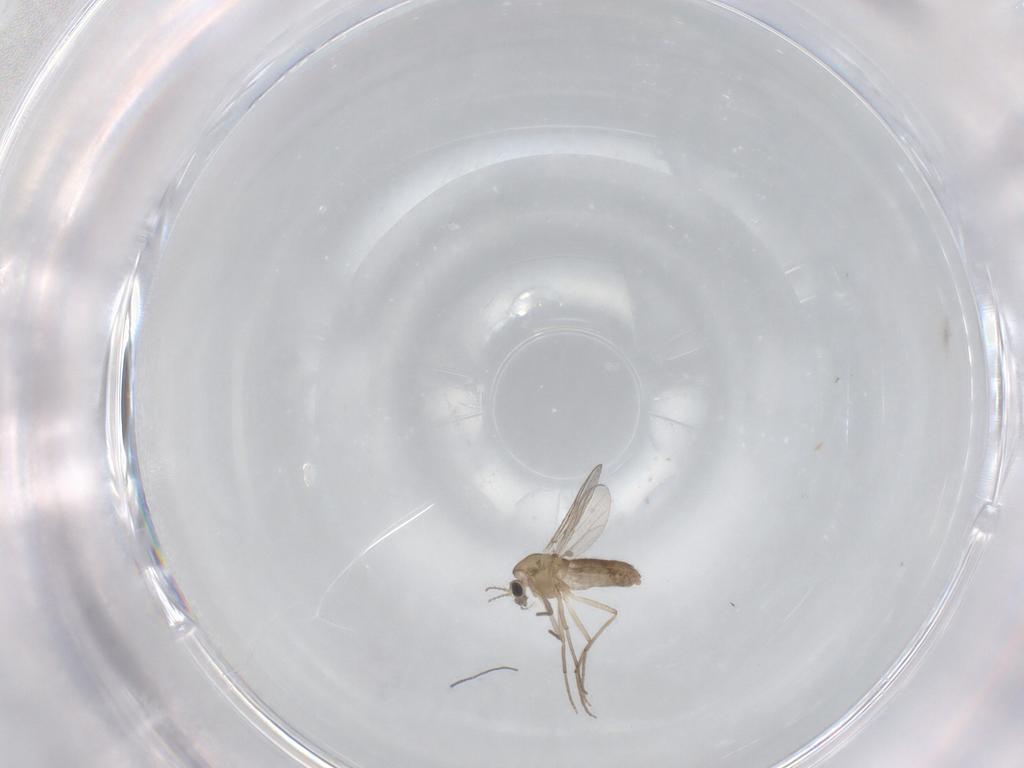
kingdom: Animalia
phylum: Arthropoda
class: Insecta
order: Diptera
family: Chironomidae
